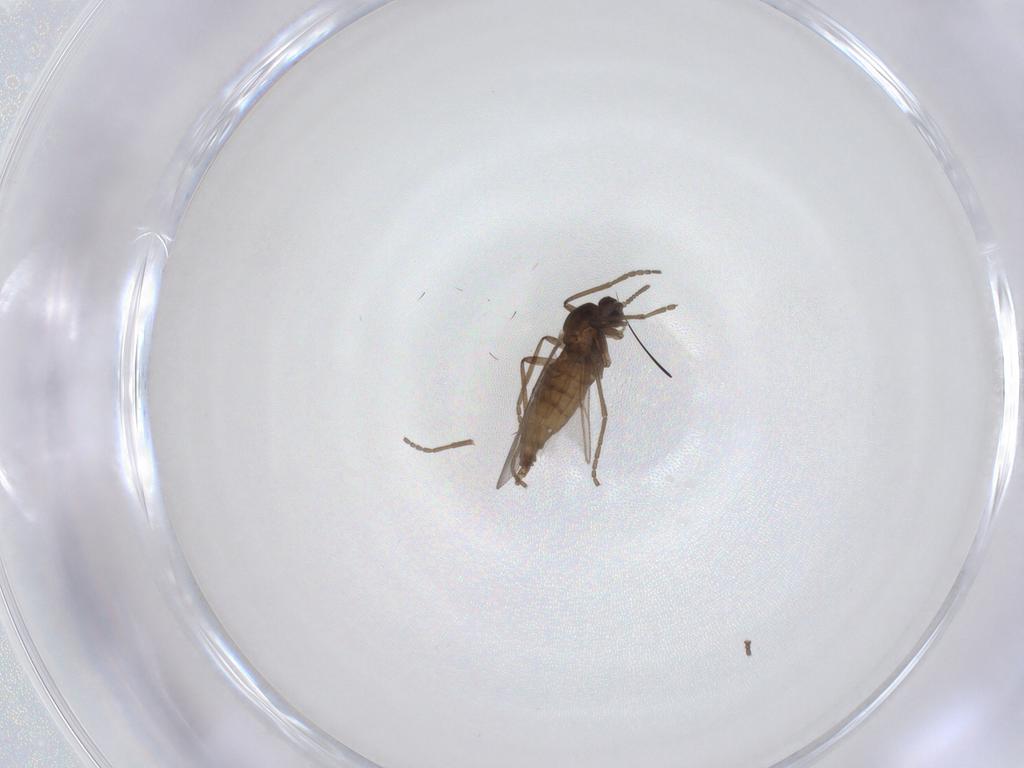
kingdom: Animalia
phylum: Arthropoda
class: Insecta
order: Diptera
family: Cecidomyiidae
